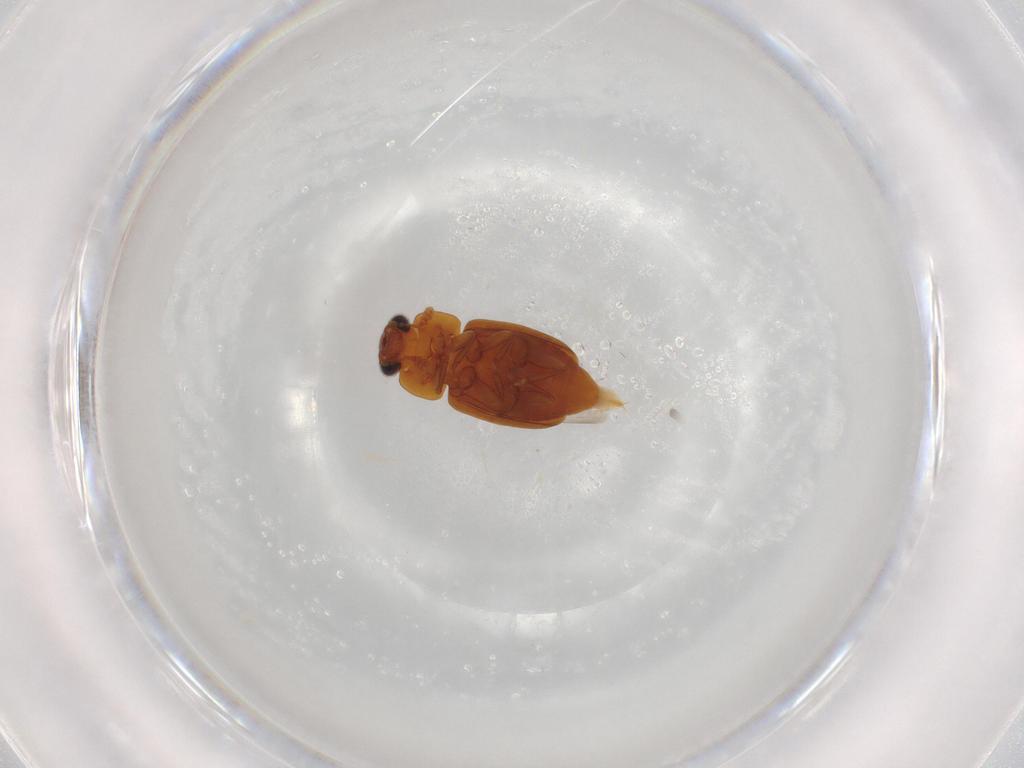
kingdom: Animalia
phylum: Arthropoda
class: Insecta
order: Coleoptera
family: Nitidulidae
